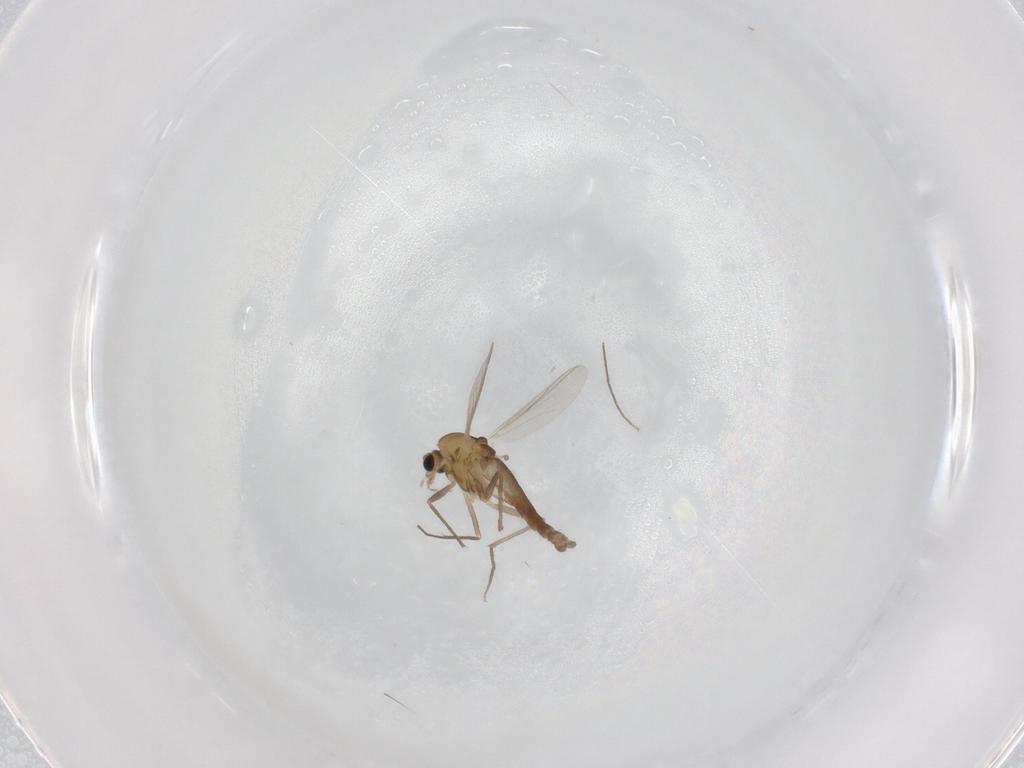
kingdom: Animalia
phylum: Arthropoda
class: Insecta
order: Diptera
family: Chironomidae
